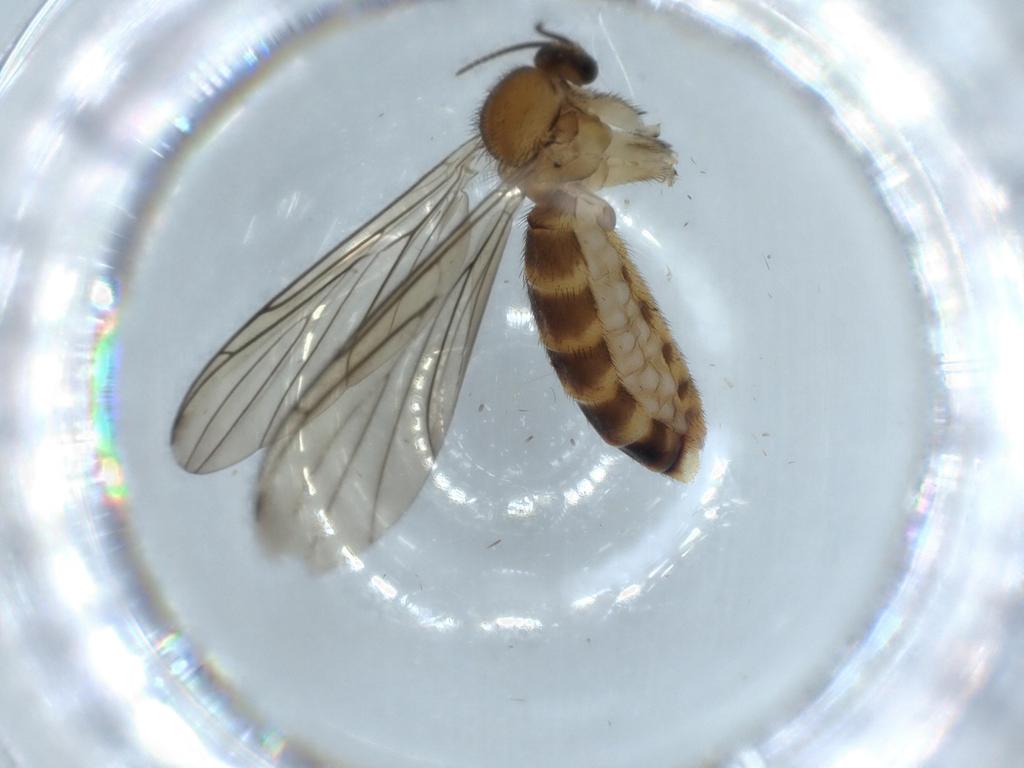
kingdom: Animalia
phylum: Arthropoda
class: Insecta
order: Diptera
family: Keroplatidae
